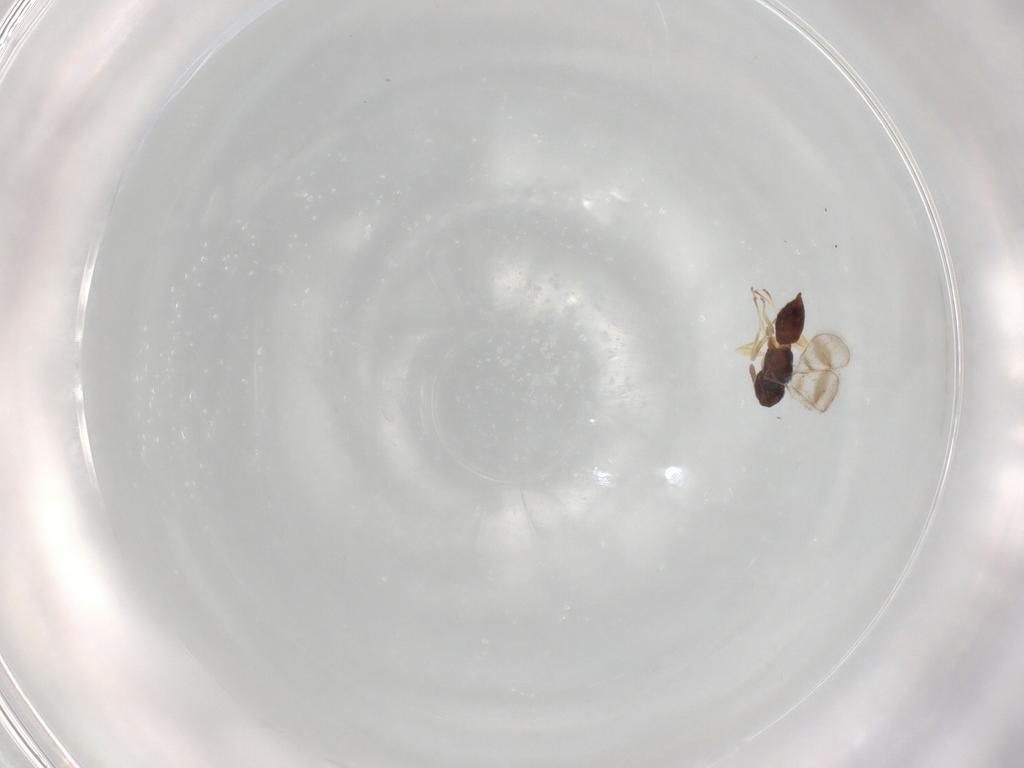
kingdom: Animalia
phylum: Arthropoda
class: Insecta
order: Hymenoptera
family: Tetracampidae
